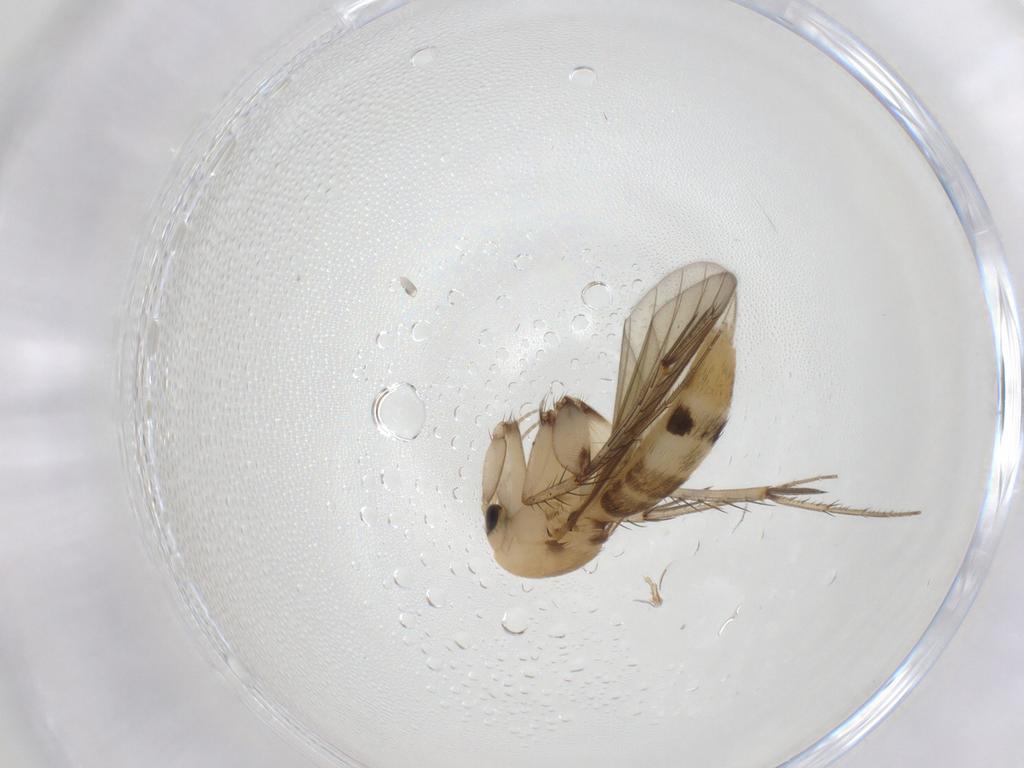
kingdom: Animalia
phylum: Arthropoda
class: Insecta
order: Diptera
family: Mycetophilidae
